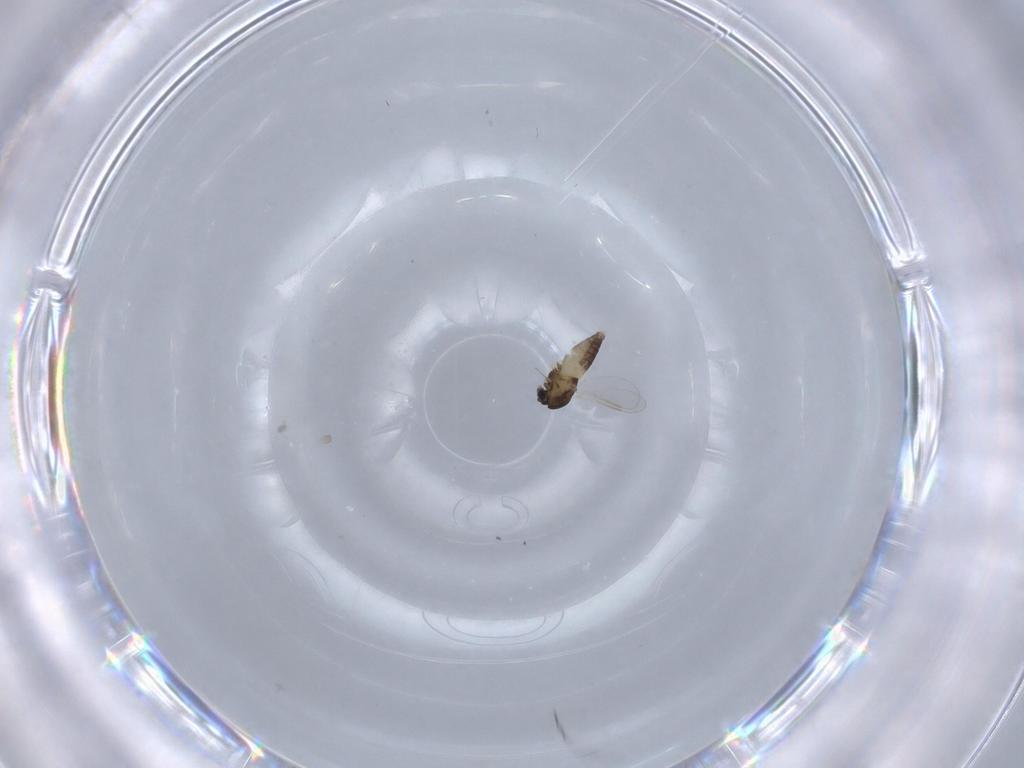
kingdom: Animalia
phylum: Arthropoda
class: Insecta
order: Diptera
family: Chironomidae
